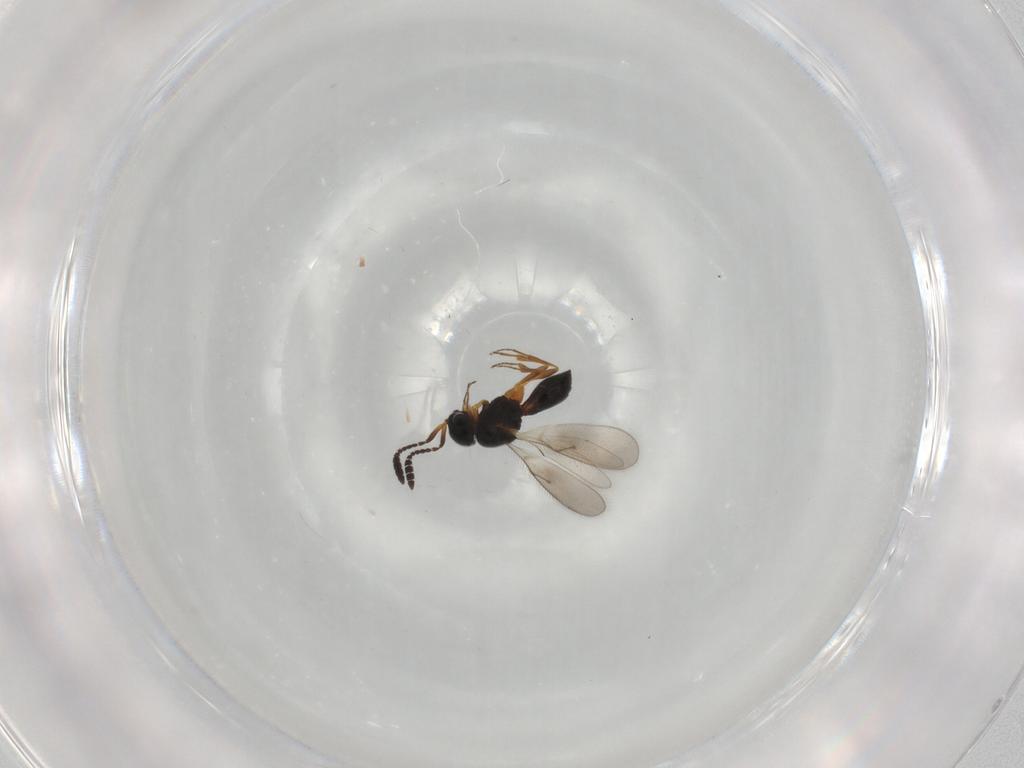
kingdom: Animalia
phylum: Arthropoda
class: Insecta
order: Hymenoptera
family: Scelionidae
